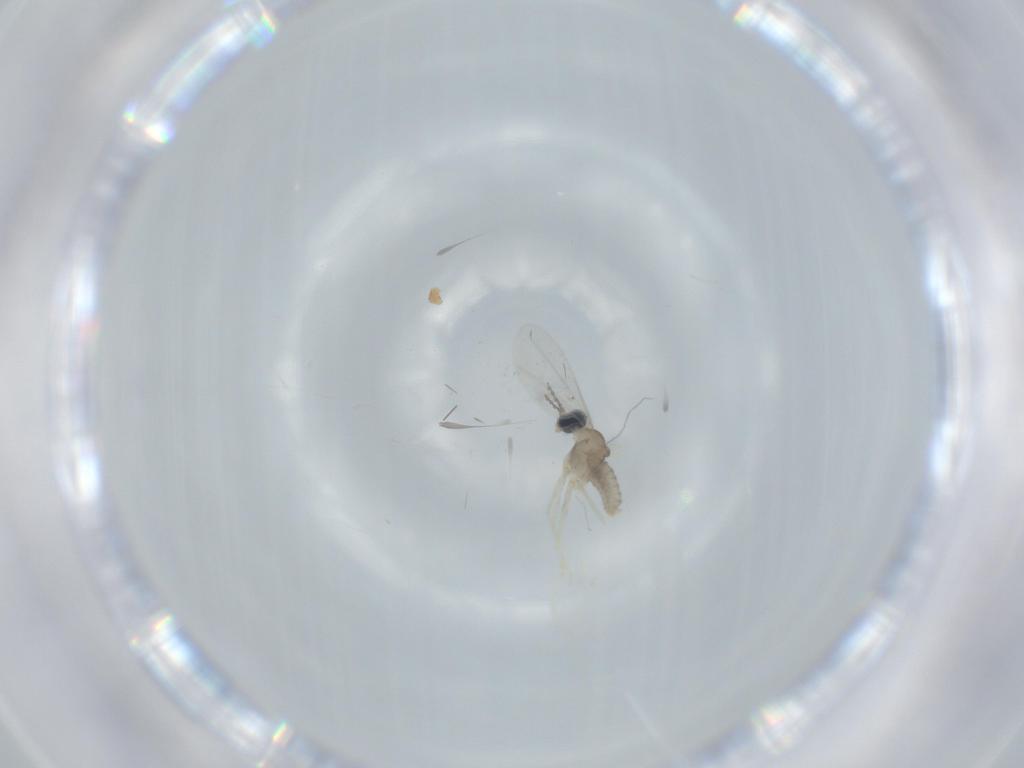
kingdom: Animalia
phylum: Arthropoda
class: Insecta
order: Diptera
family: Cecidomyiidae
